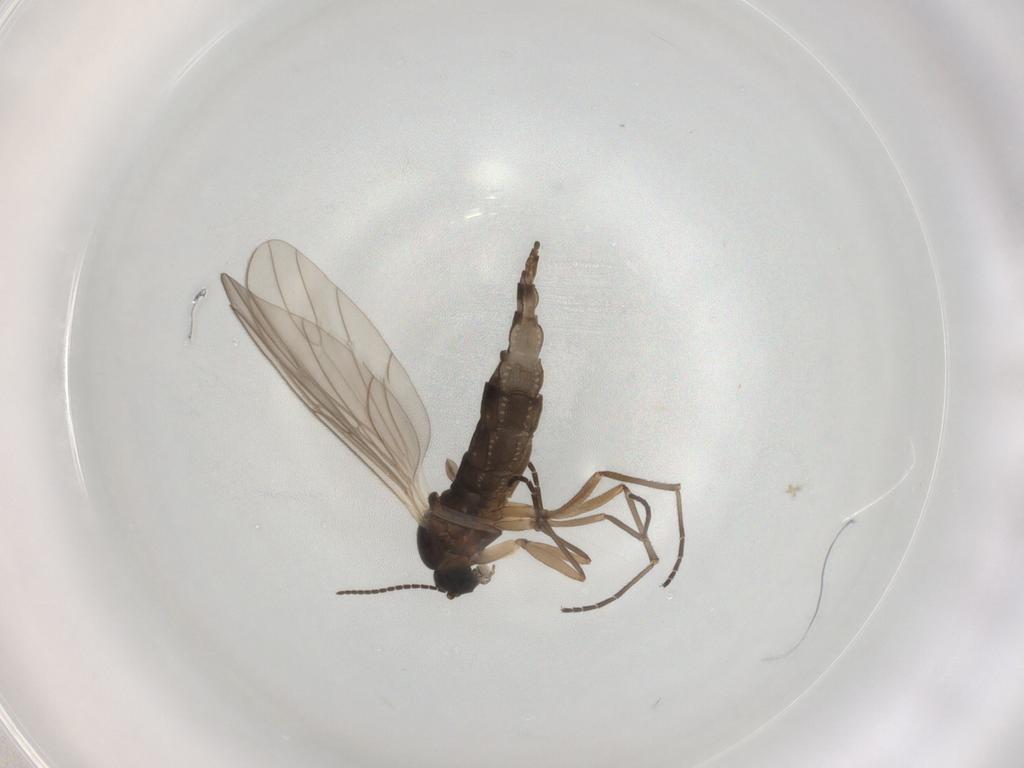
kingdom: Animalia
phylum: Arthropoda
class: Insecta
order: Diptera
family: Sciaridae
